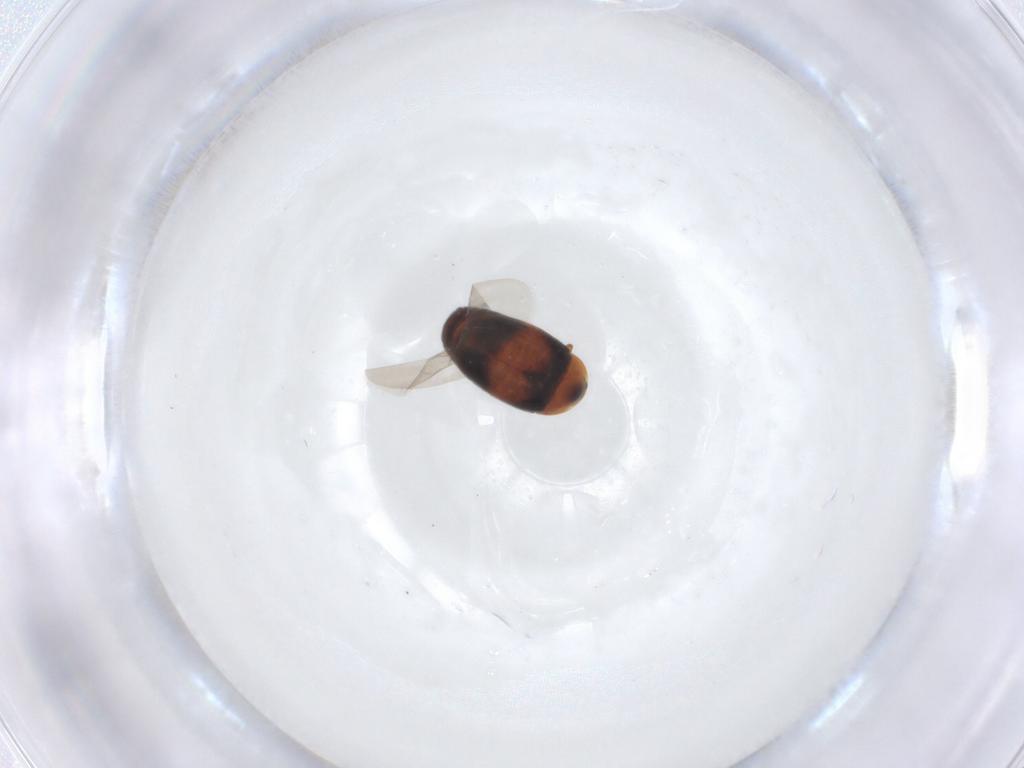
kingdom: Animalia
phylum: Arthropoda
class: Insecta
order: Coleoptera
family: Corylophidae
